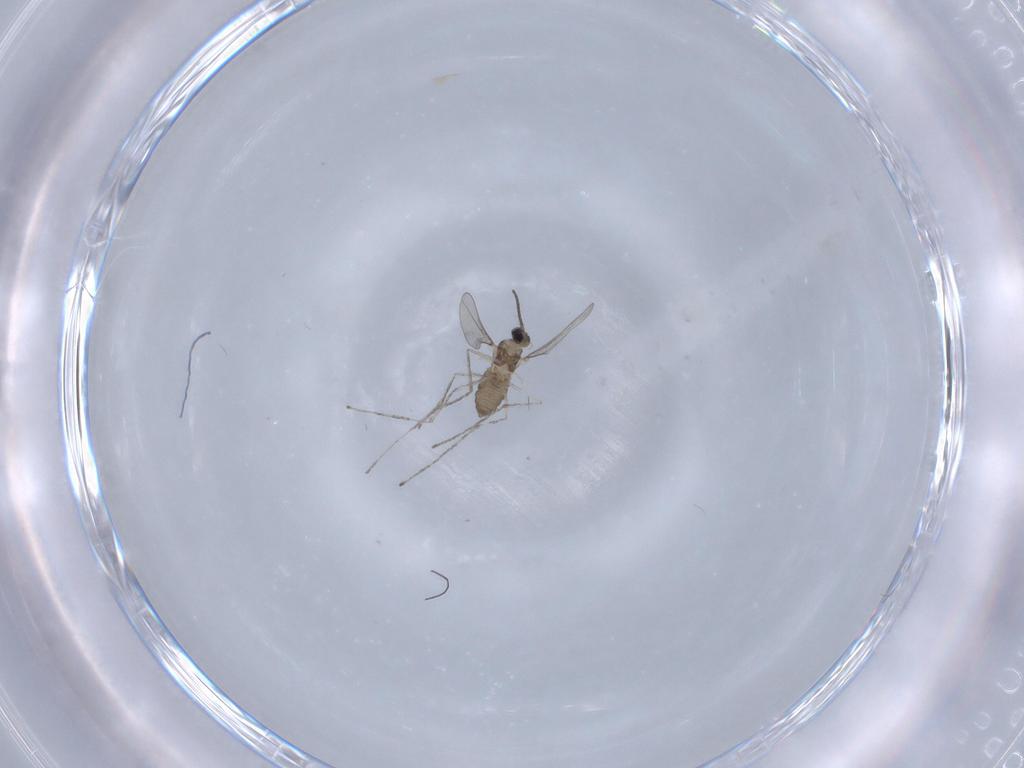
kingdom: Animalia
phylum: Arthropoda
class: Insecta
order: Diptera
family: Cecidomyiidae
